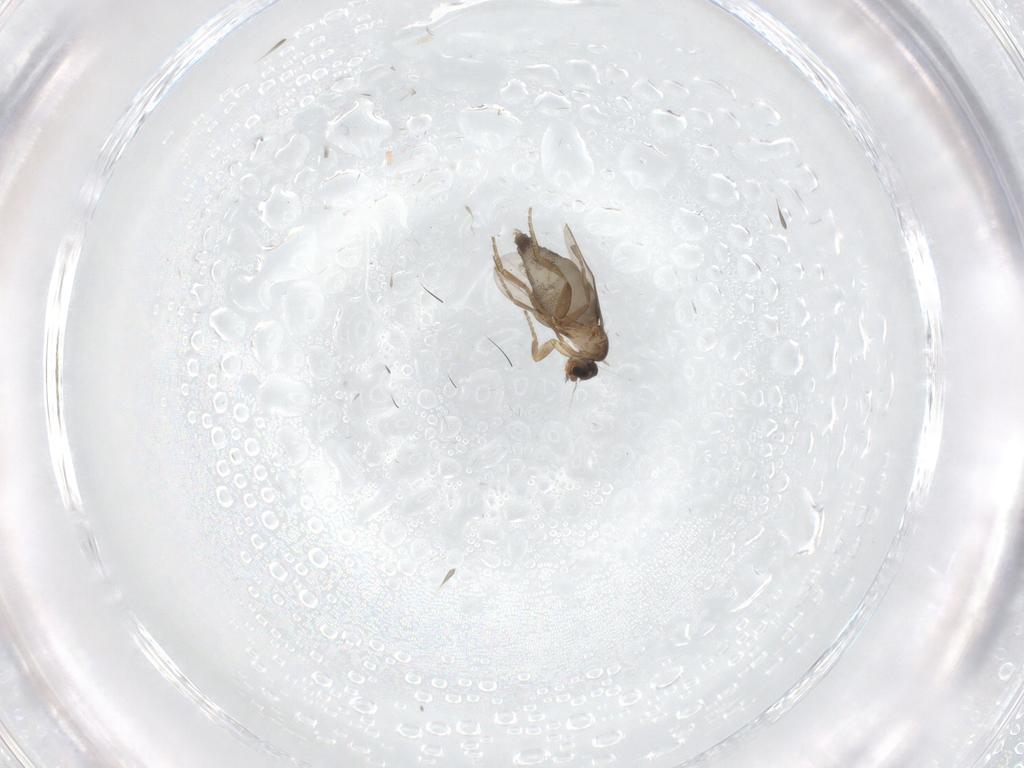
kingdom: Animalia
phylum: Arthropoda
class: Insecta
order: Diptera
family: Phoridae
